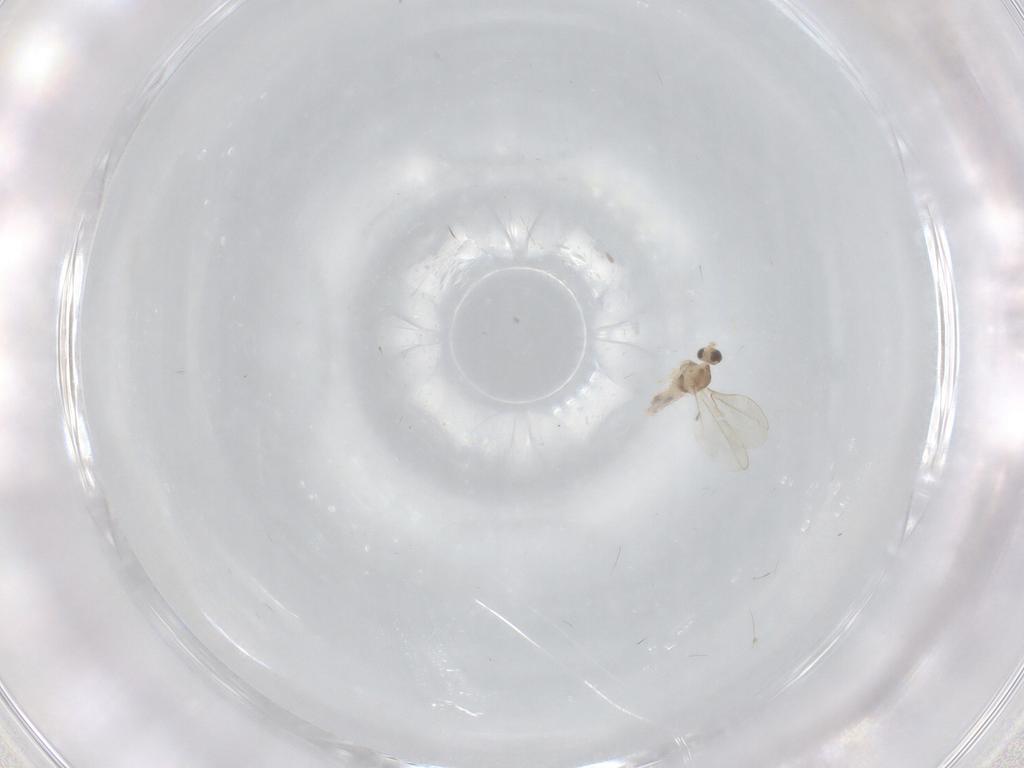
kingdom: Animalia
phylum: Arthropoda
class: Insecta
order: Diptera
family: Cecidomyiidae
